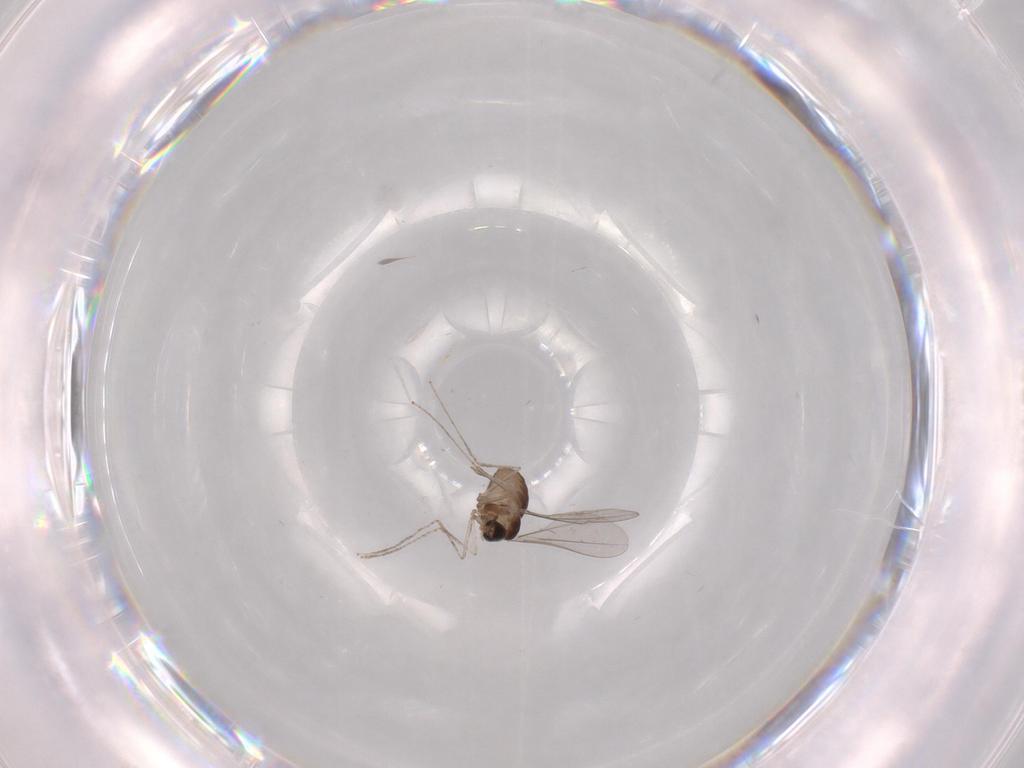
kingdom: Animalia
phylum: Arthropoda
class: Insecta
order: Diptera
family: Cecidomyiidae
